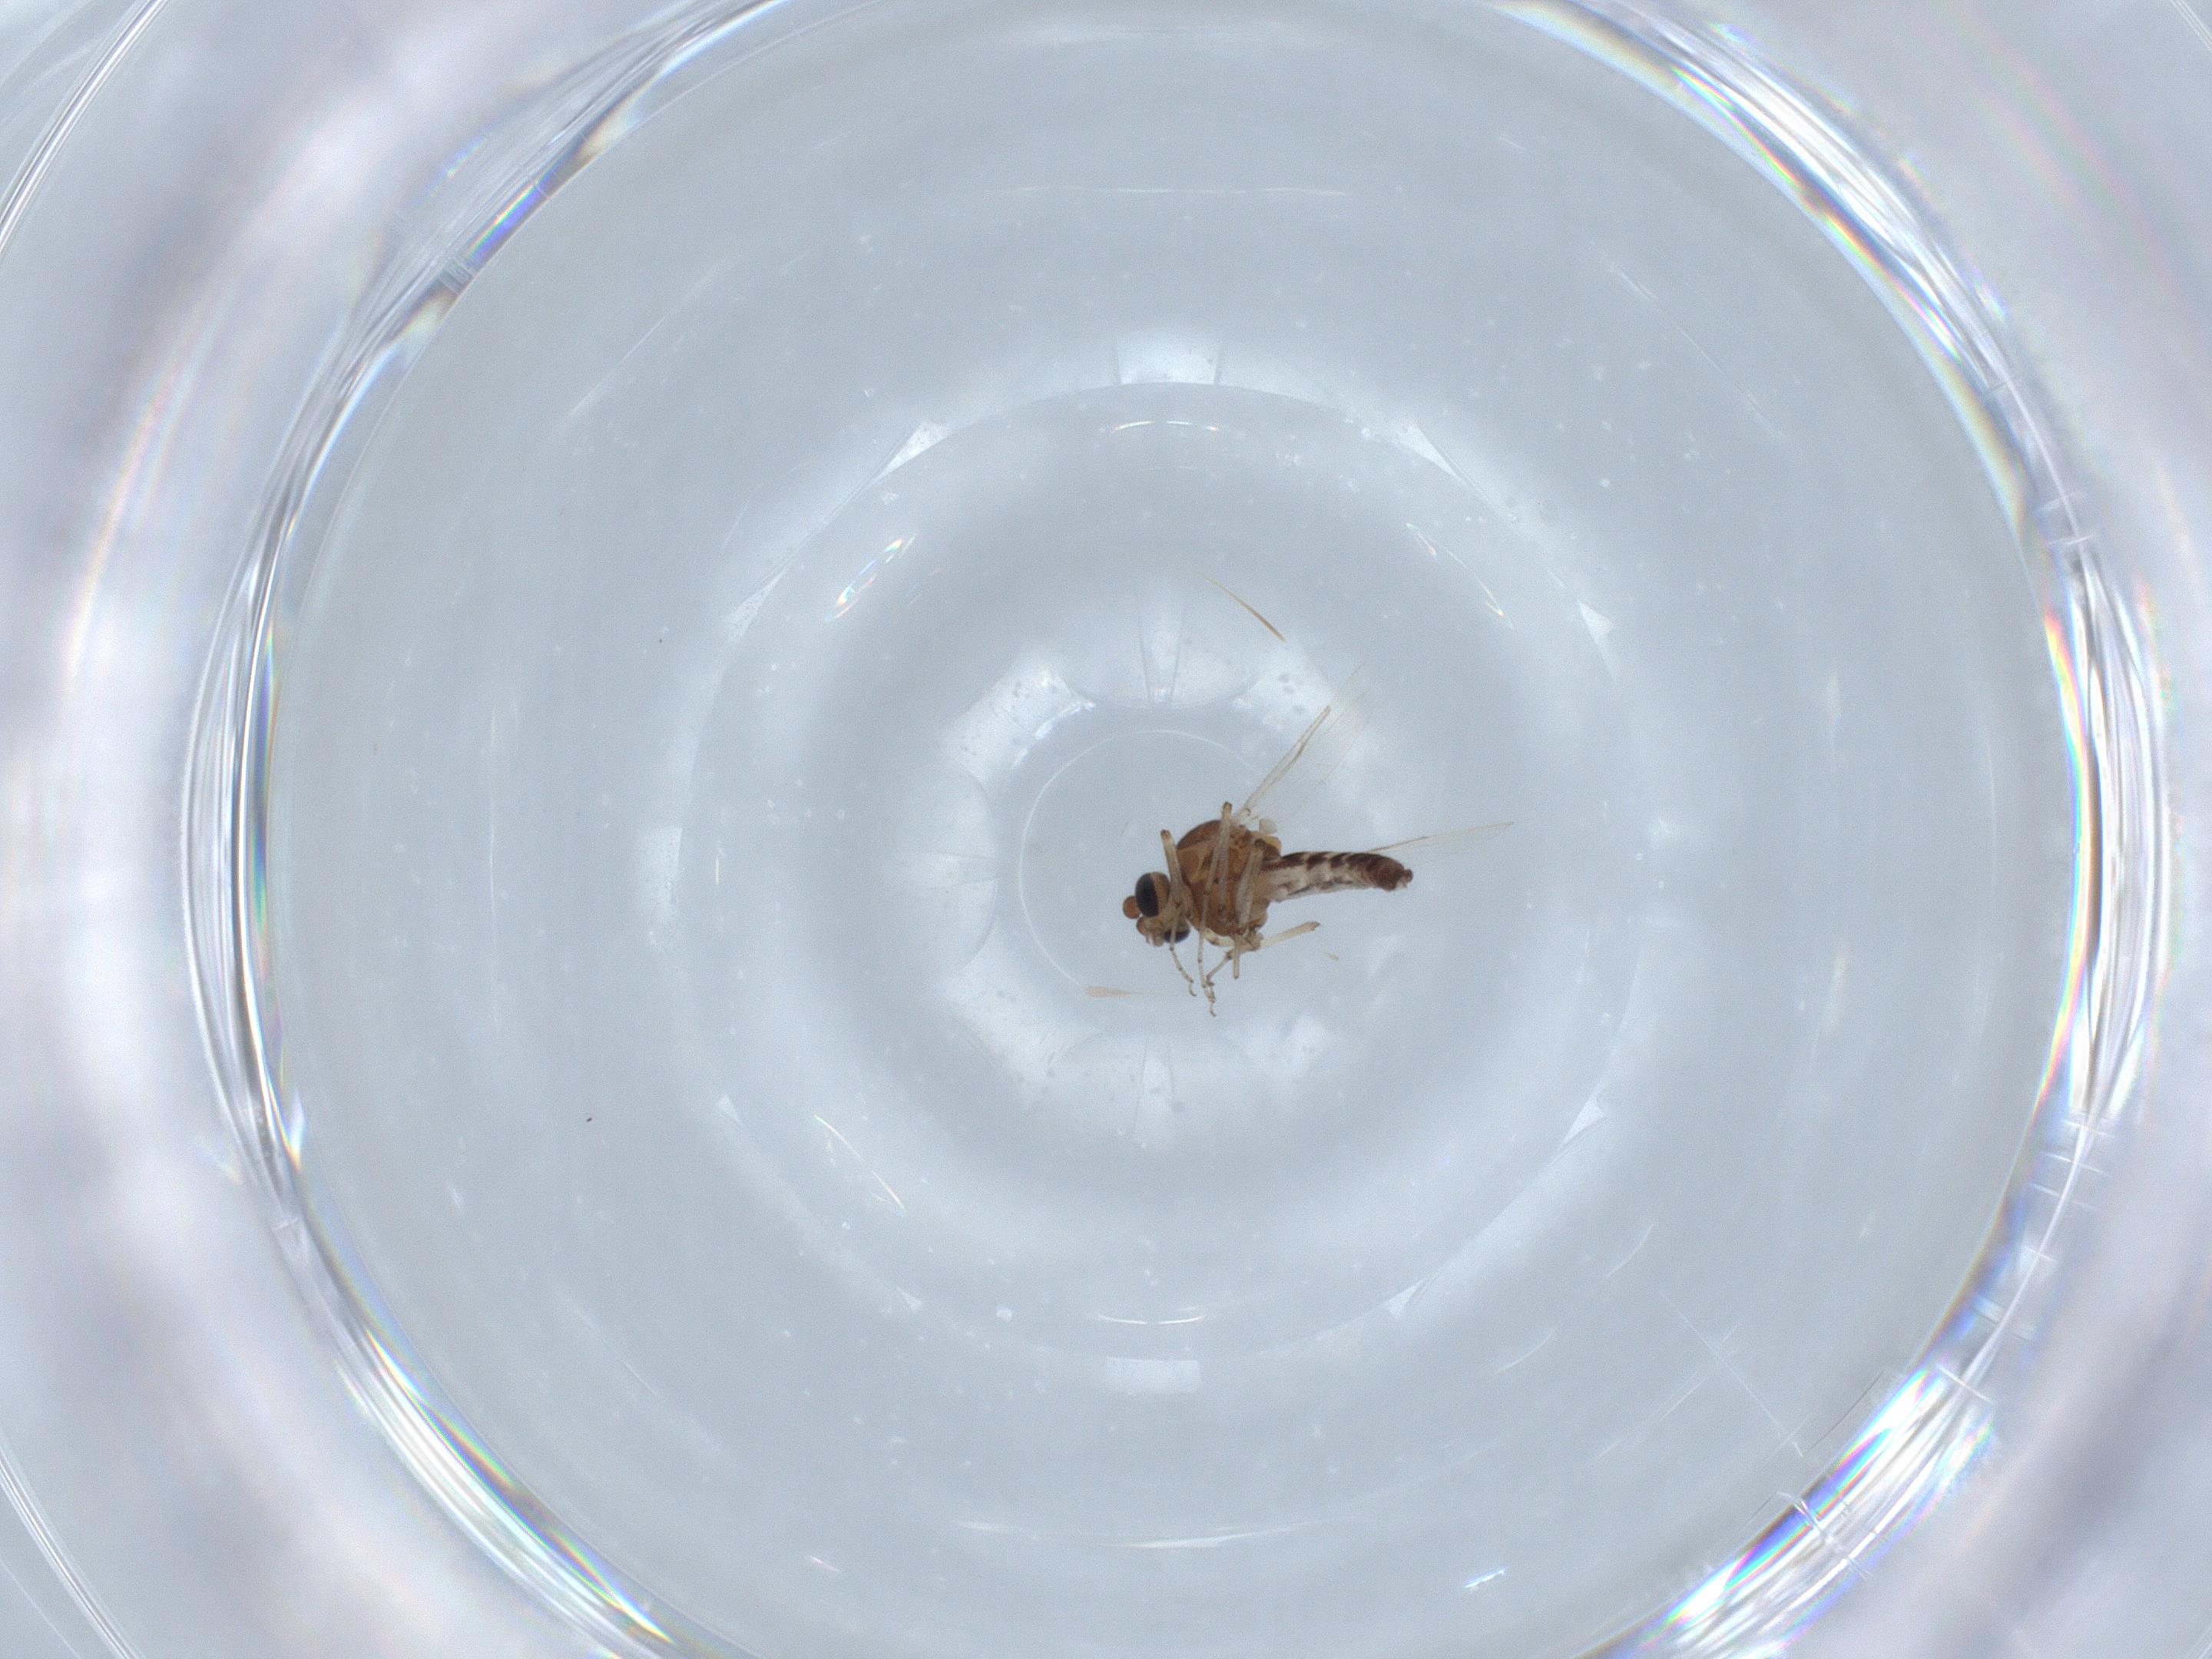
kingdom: Animalia
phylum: Arthropoda
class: Insecta
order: Diptera
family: Ceratopogonidae
